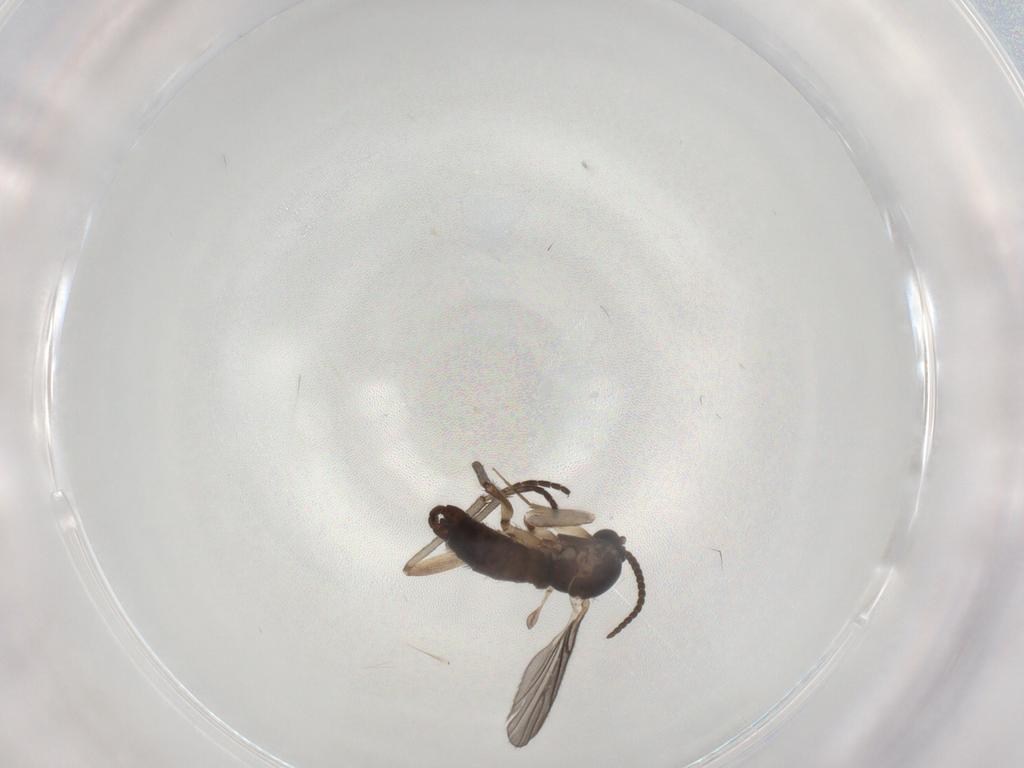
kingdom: Animalia
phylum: Arthropoda
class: Insecta
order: Diptera
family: Sciaridae
